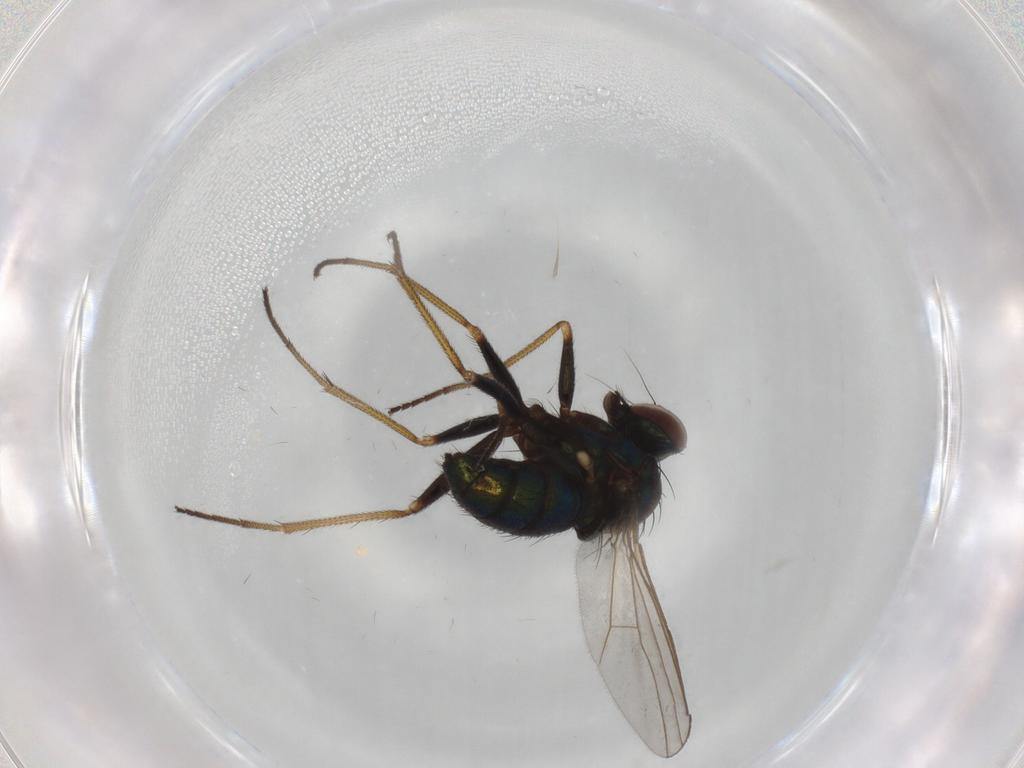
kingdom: Animalia
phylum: Arthropoda
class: Insecta
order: Diptera
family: Dolichopodidae
